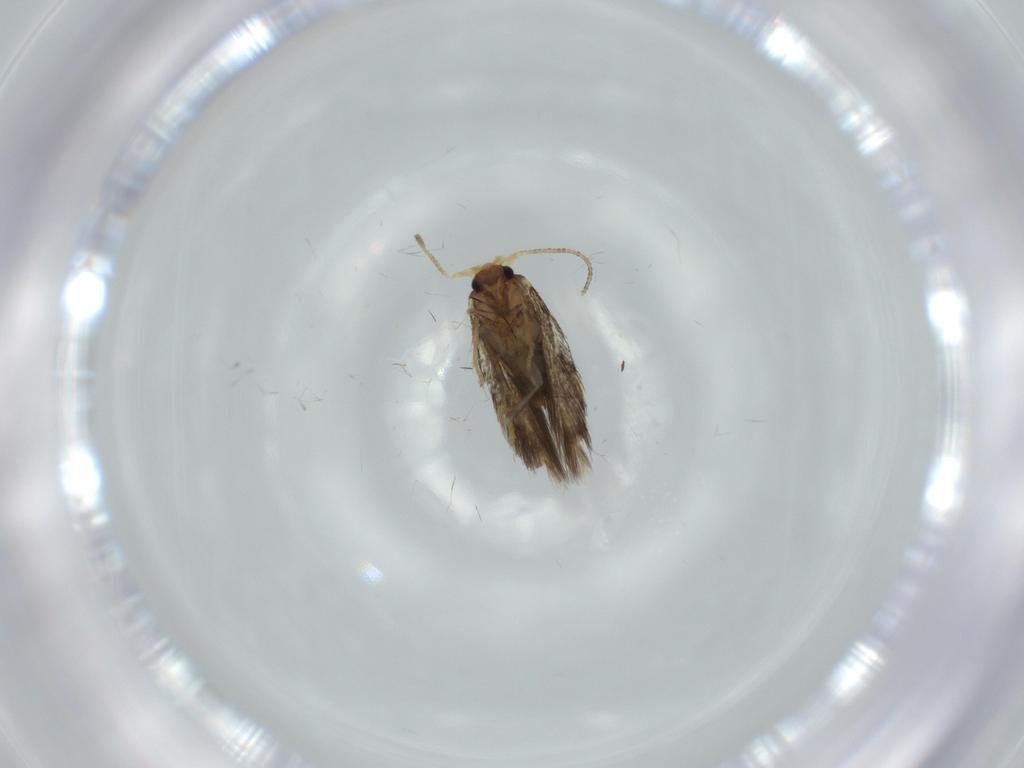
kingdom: Animalia
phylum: Arthropoda
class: Insecta
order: Lepidoptera
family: Nepticulidae
